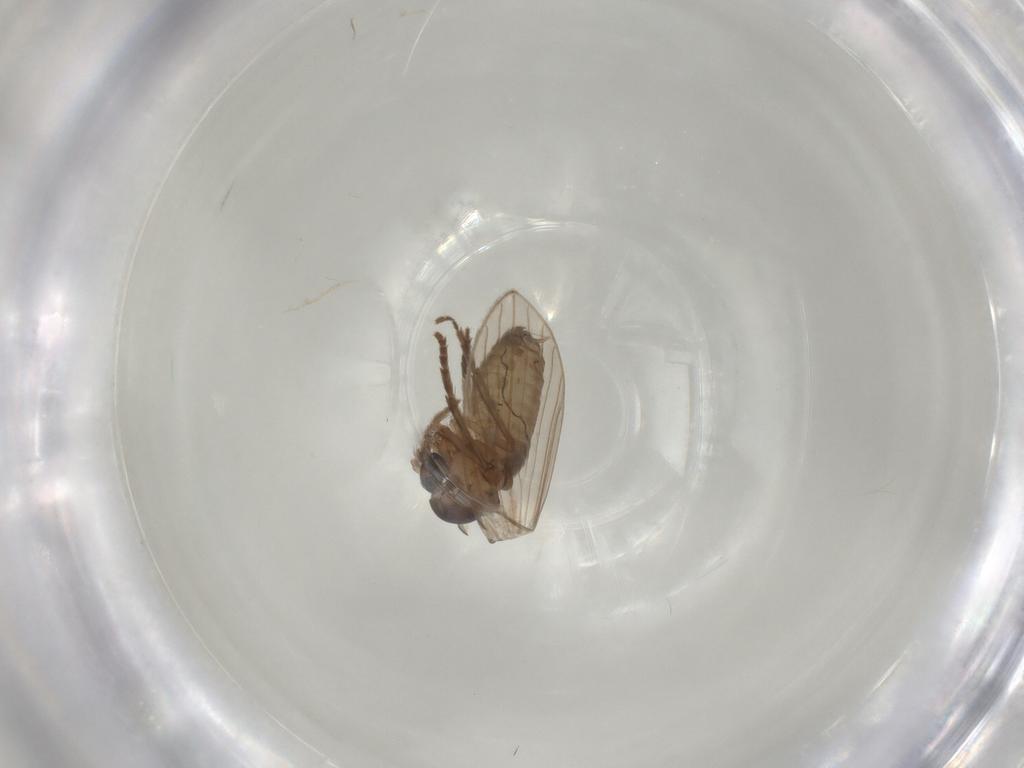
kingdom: Animalia
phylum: Arthropoda
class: Insecta
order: Diptera
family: Psychodidae
